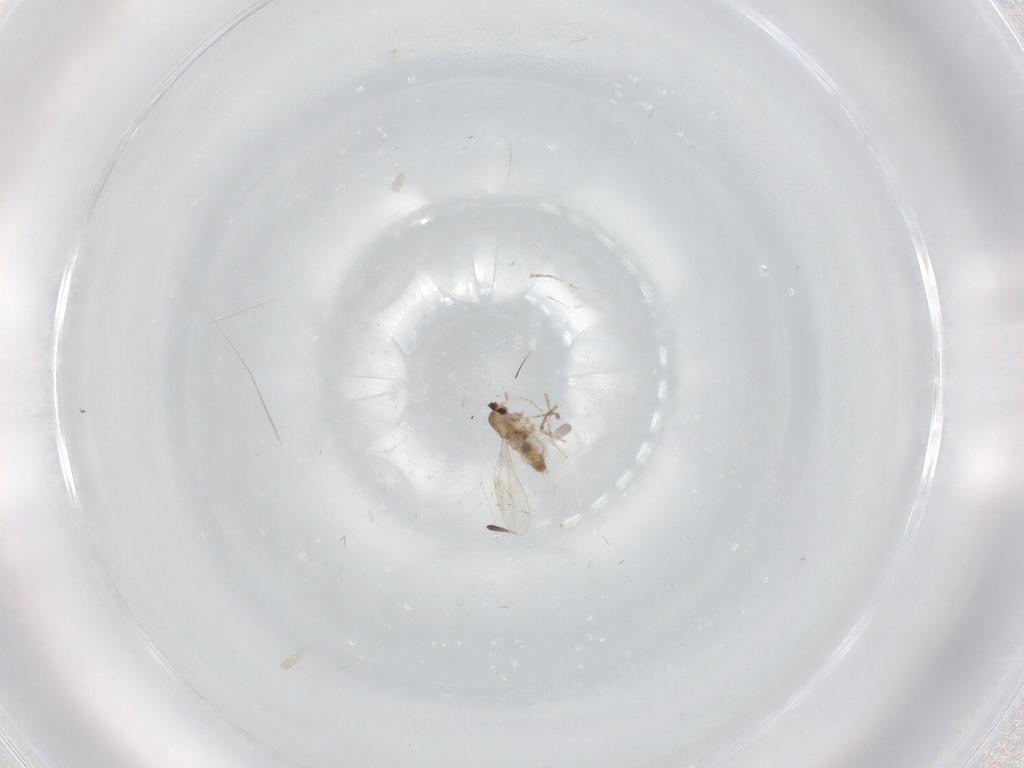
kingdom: Animalia
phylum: Arthropoda
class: Insecta
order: Diptera
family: Cecidomyiidae
